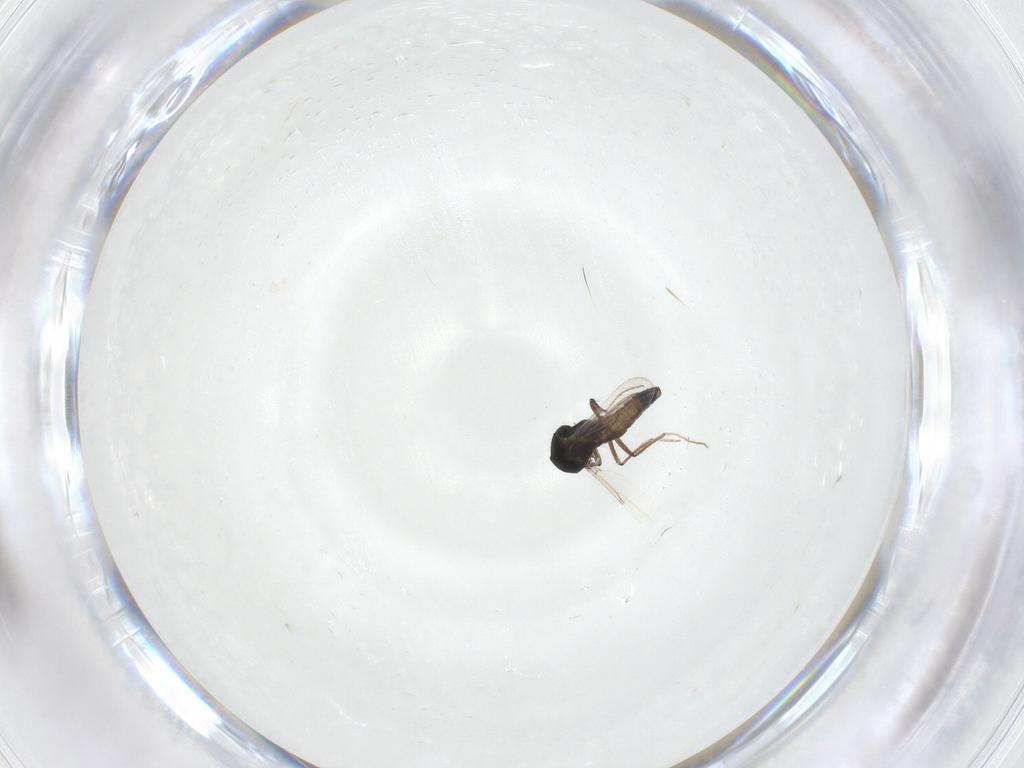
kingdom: Animalia
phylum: Arthropoda
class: Insecta
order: Diptera
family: Ceratopogonidae
